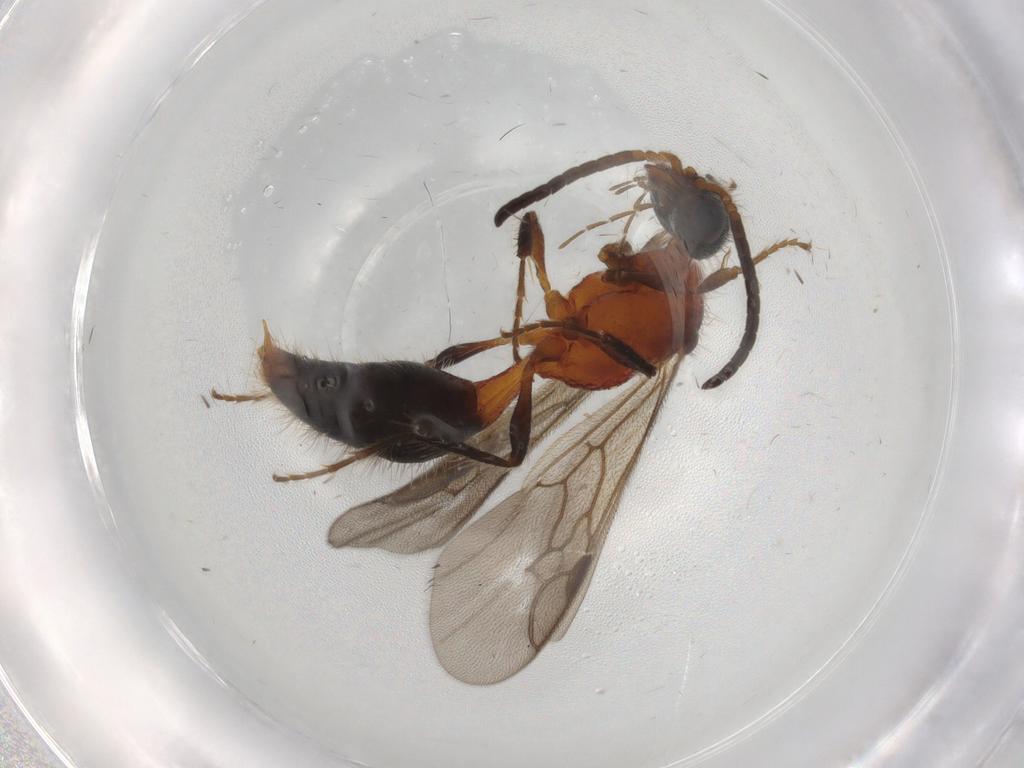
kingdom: Animalia
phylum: Arthropoda
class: Insecta
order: Hymenoptera
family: Mutillidae
